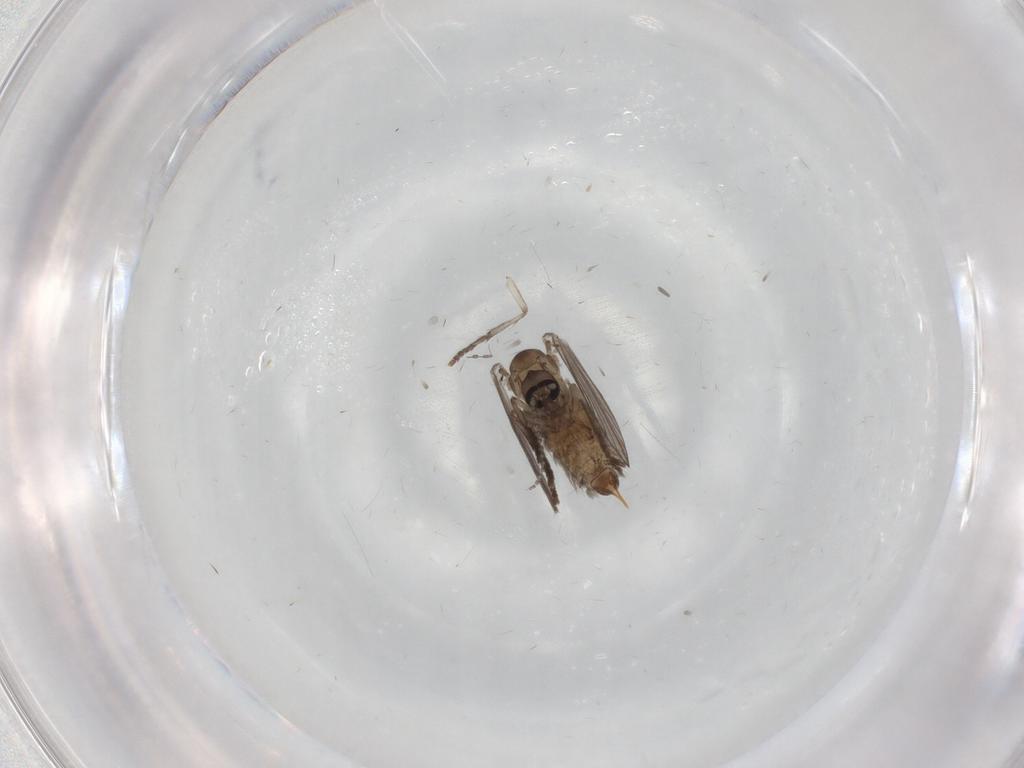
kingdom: Animalia
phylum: Arthropoda
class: Insecta
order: Diptera
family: Psychodidae
